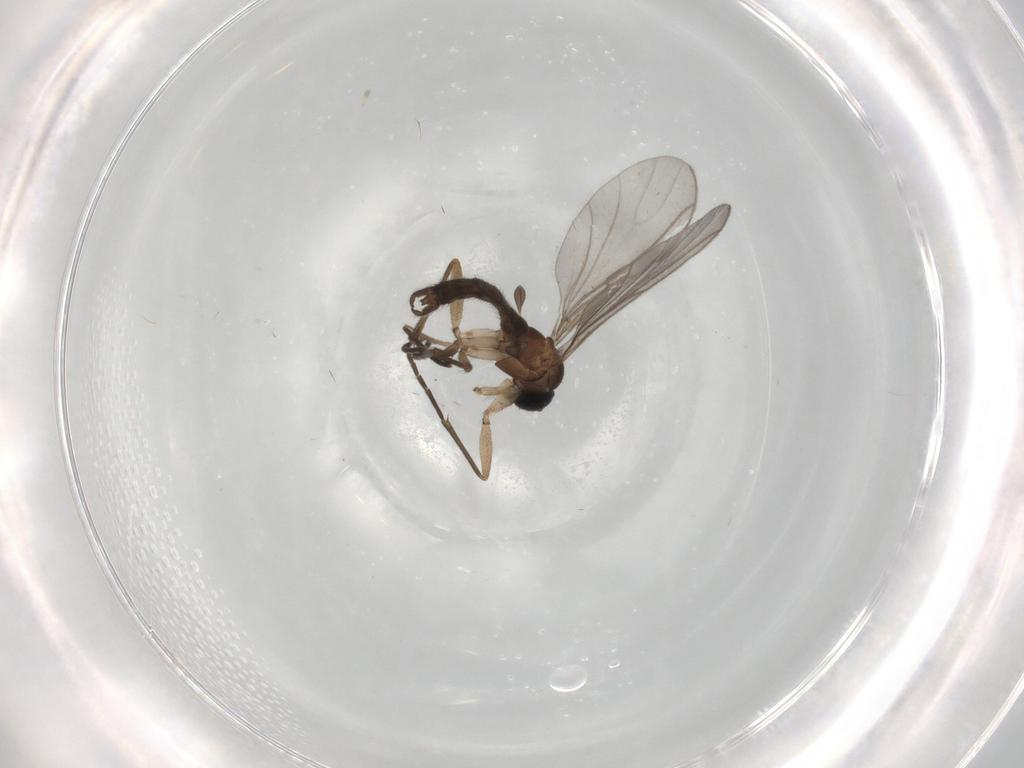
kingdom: Animalia
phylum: Arthropoda
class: Insecta
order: Diptera
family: Sciaridae
